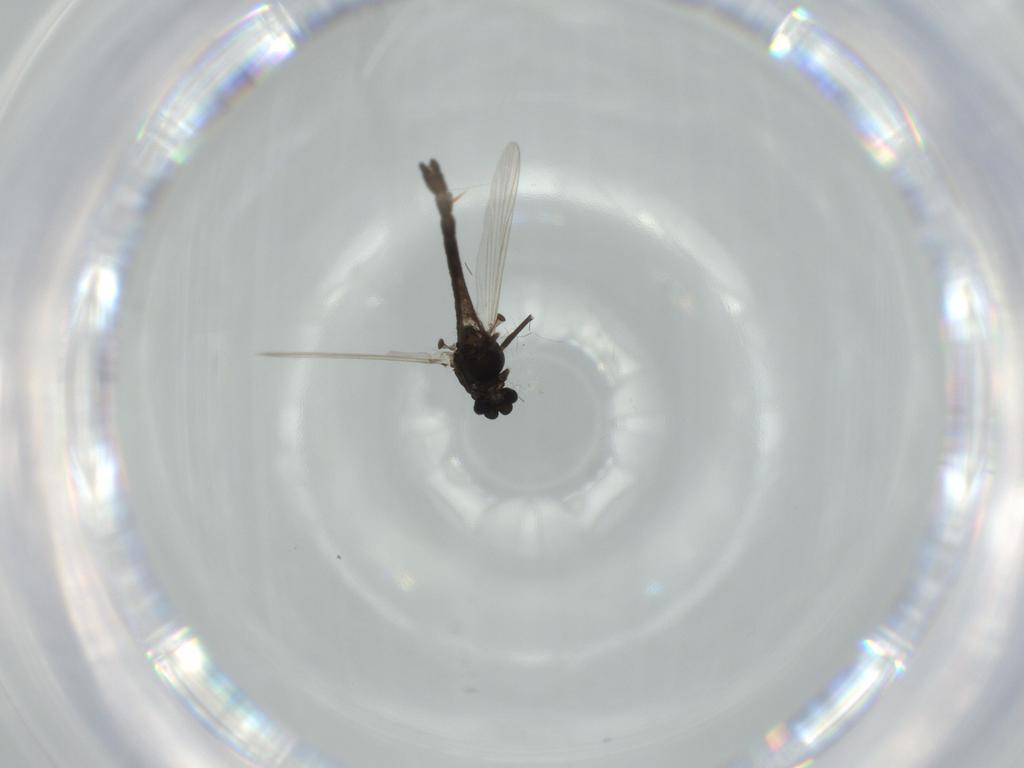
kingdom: Animalia
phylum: Arthropoda
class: Insecta
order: Diptera
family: Chironomidae
